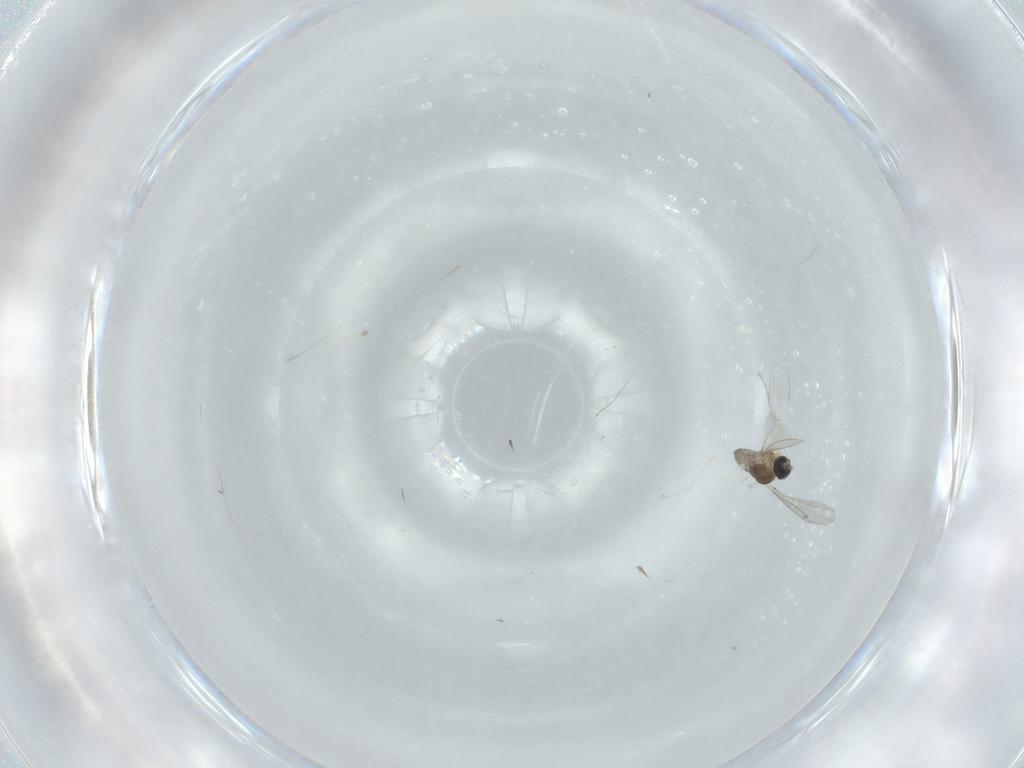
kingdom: Animalia
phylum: Arthropoda
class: Insecta
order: Diptera
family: Cecidomyiidae
